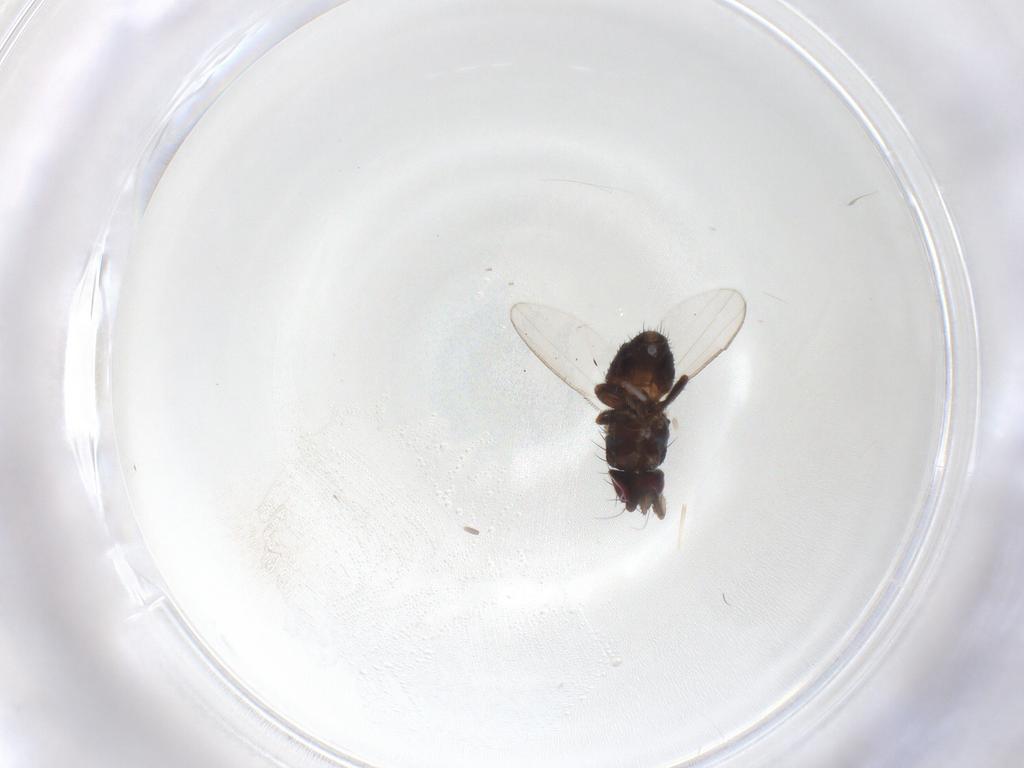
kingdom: Animalia
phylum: Arthropoda
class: Insecta
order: Diptera
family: Milichiidae
